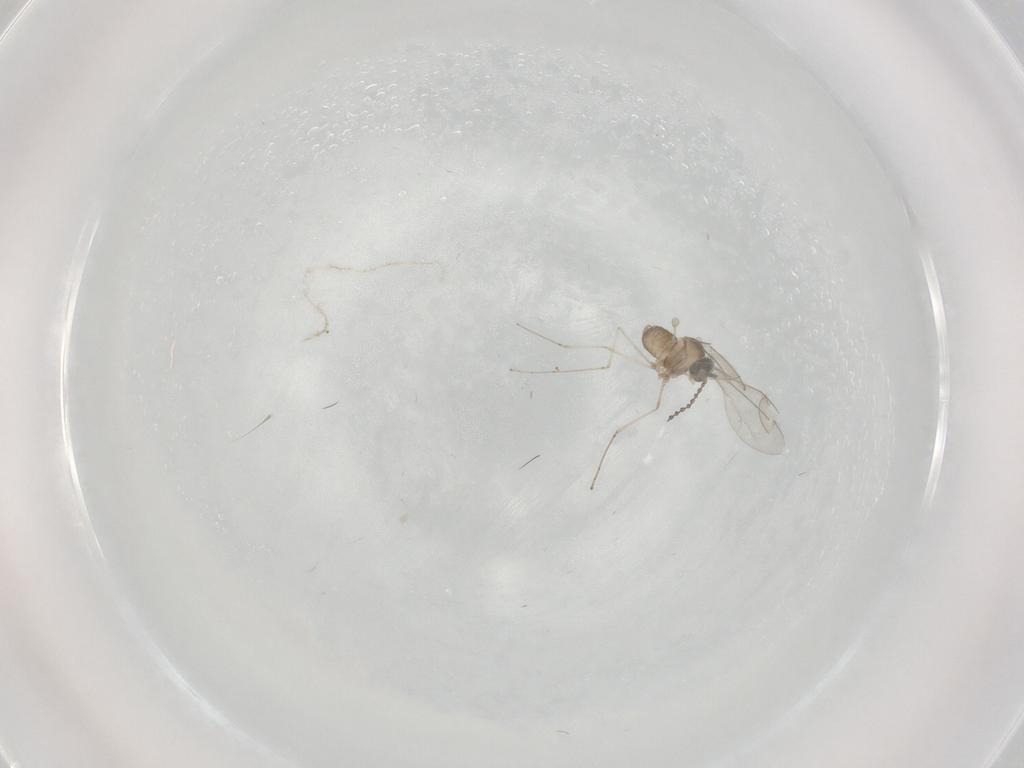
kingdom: Animalia
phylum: Arthropoda
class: Insecta
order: Diptera
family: Cecidomyiidae
